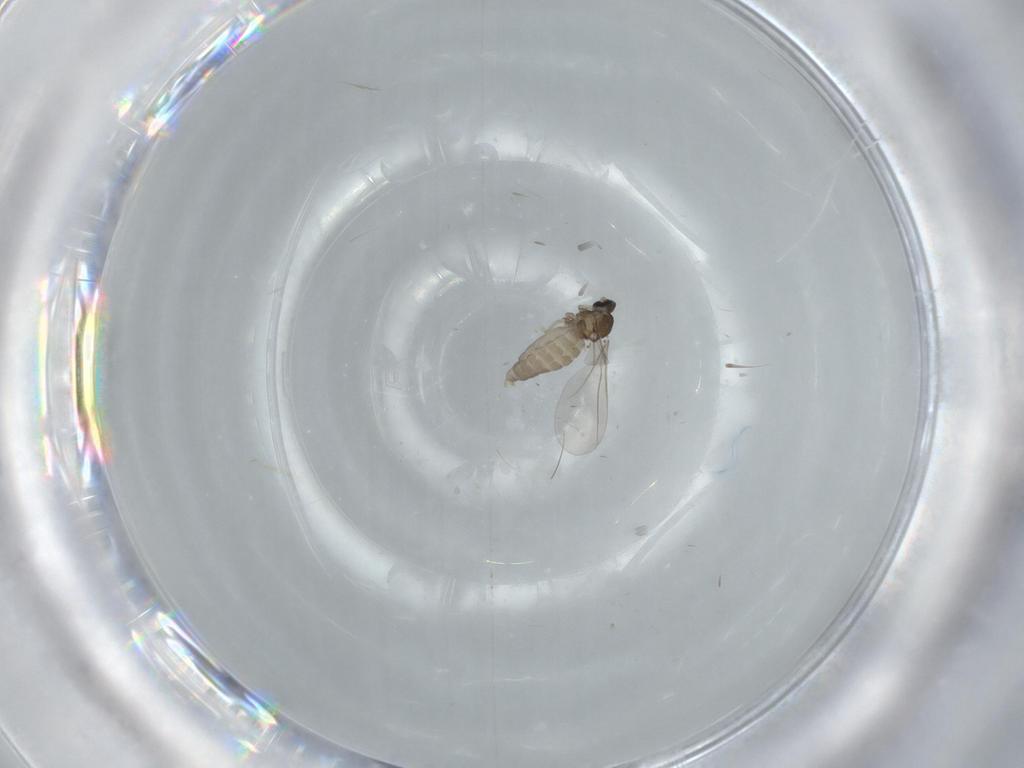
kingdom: Animalia
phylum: Arthropoda
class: Insecta
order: Diptera
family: Cecidomyiidae
